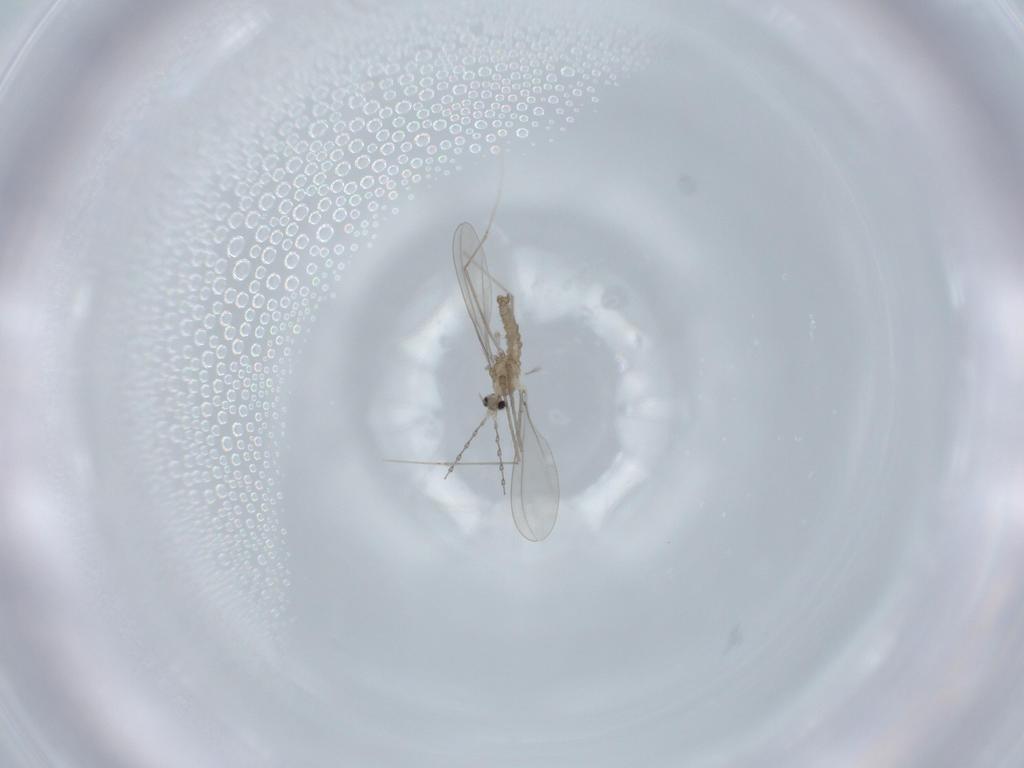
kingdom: Animalia
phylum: Arthropoda
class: Insecta
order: Diptera
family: Cecidomyiidae
